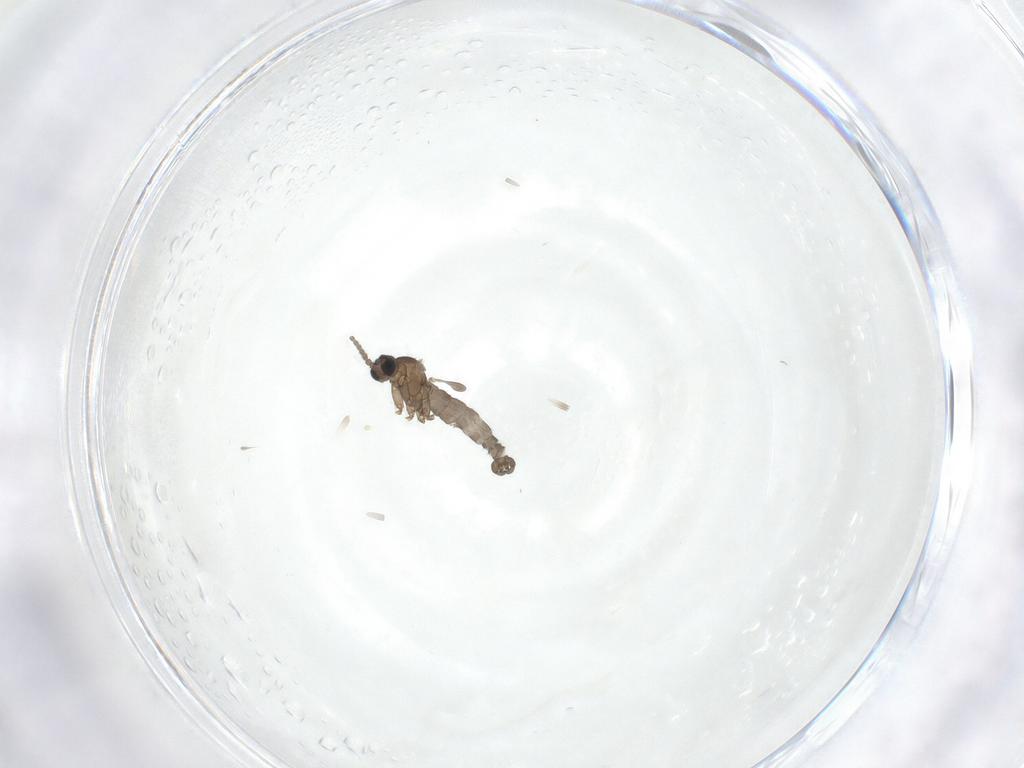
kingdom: Animalia
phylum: Arthropoda
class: Insecta
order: Diptera
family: Sciaridae
